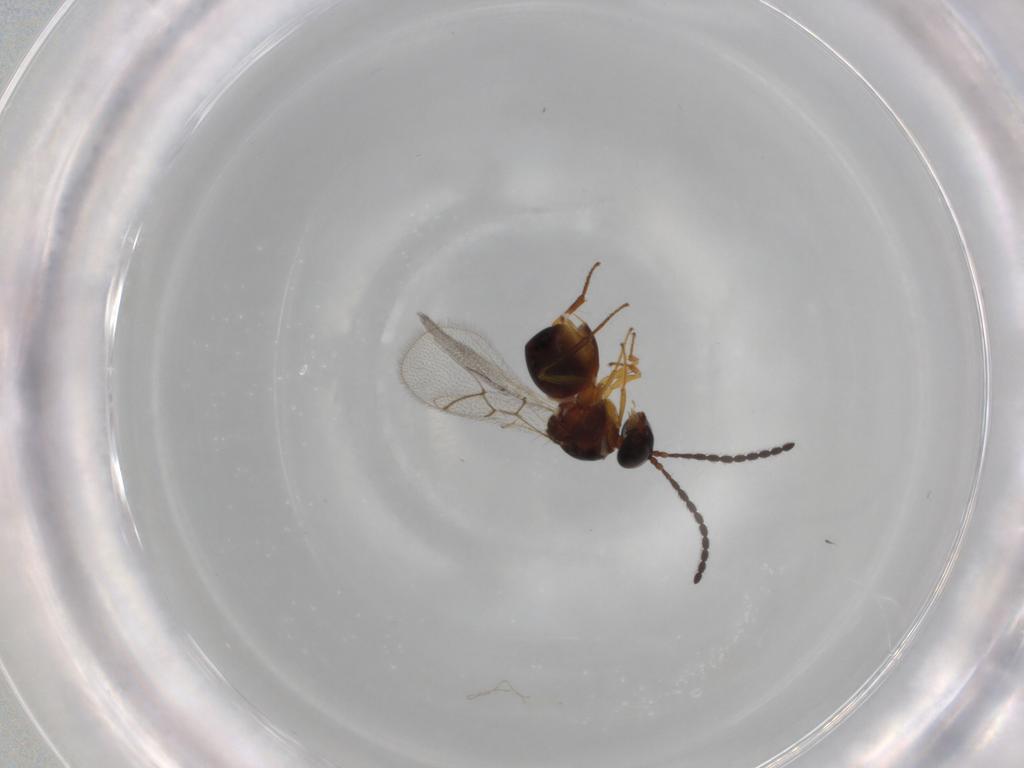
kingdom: Animalia
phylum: Arthropoda
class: Insecta
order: Hymenoptera
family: Figitidae
